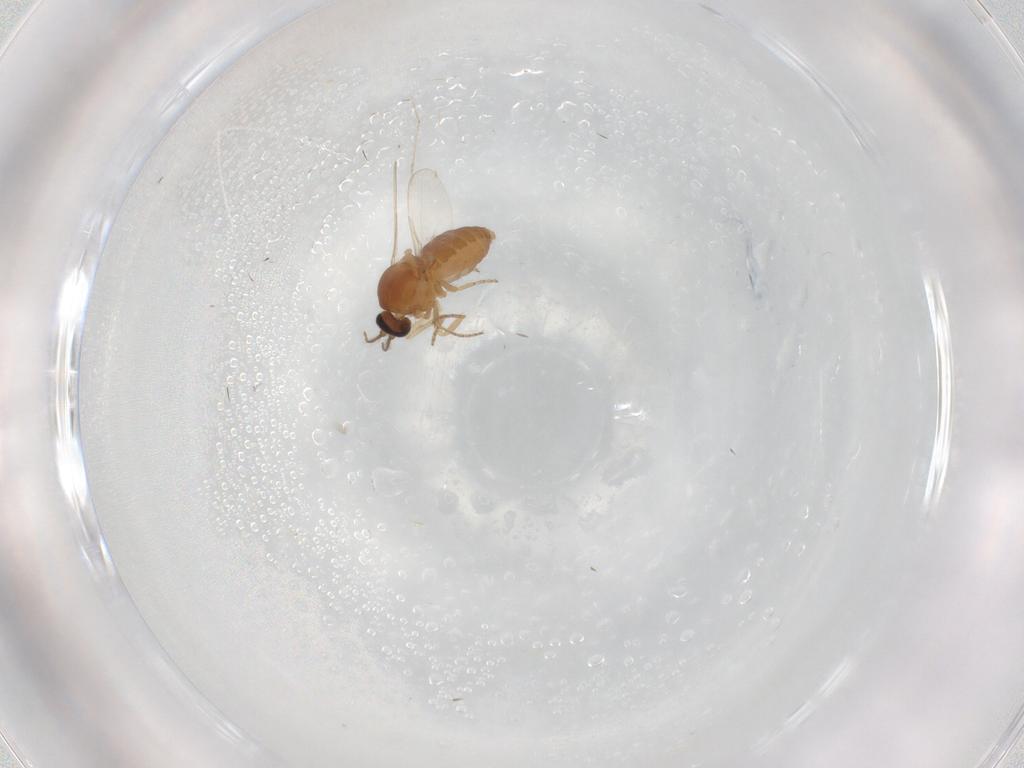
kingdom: Animalia
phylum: Arthropoda
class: Insecta
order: Diptera
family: Ceratopogonidae
